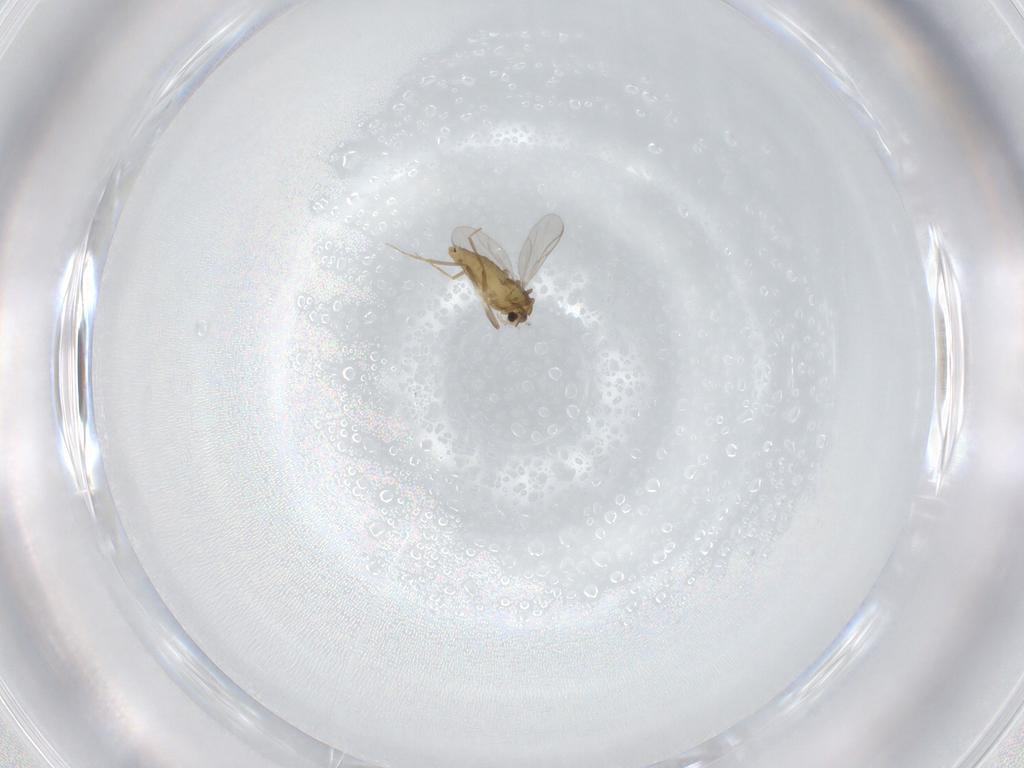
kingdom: Animalia
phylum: Arthropoda
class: Insecta
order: Diptera
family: Chironomidae
